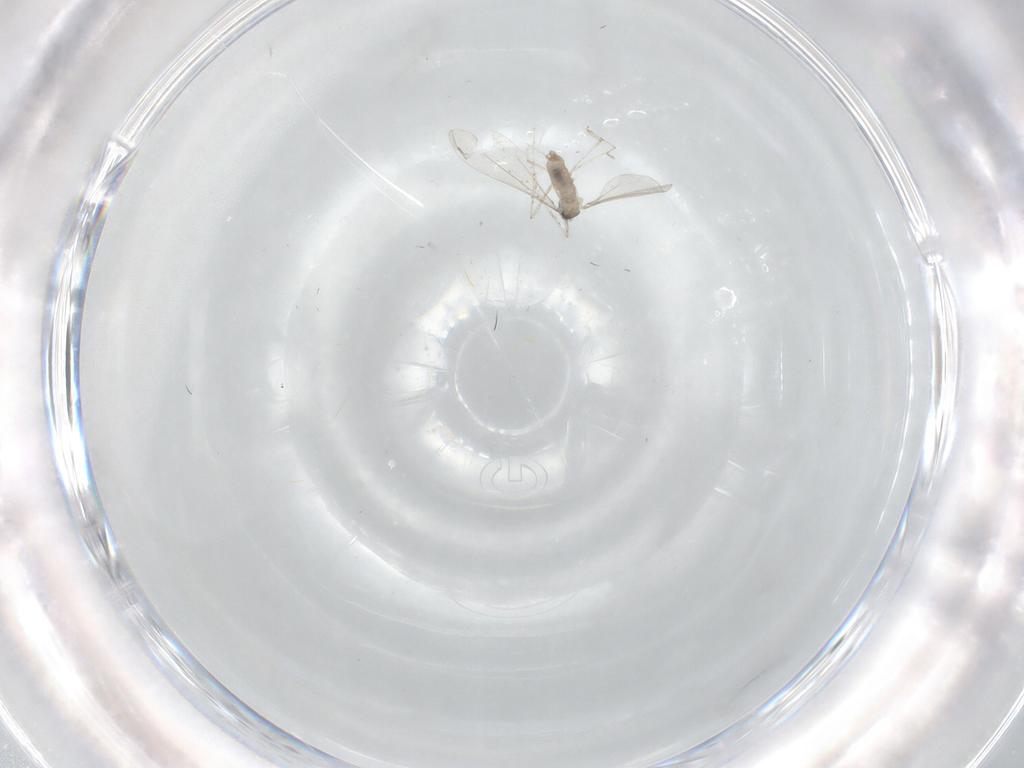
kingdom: Animalia
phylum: Arthropoda
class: Insecta
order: Diptera
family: Cecidomyiidae
